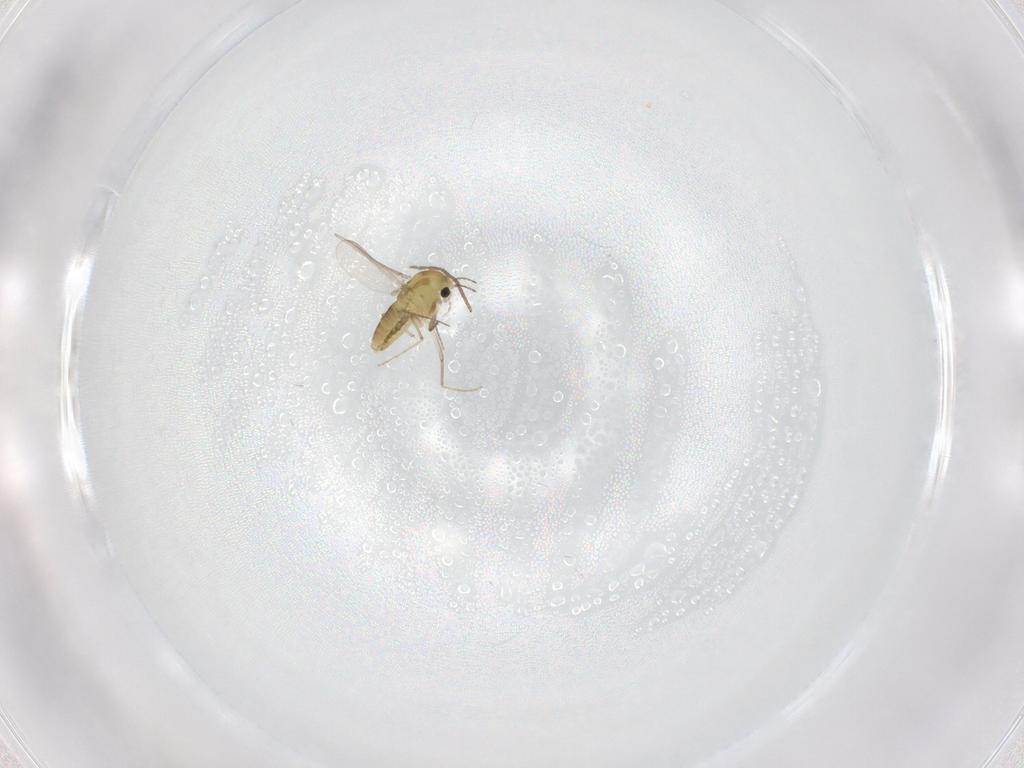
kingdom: Animalia
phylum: Arthropoda
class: Insecta
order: Diptera
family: Chironomidae
